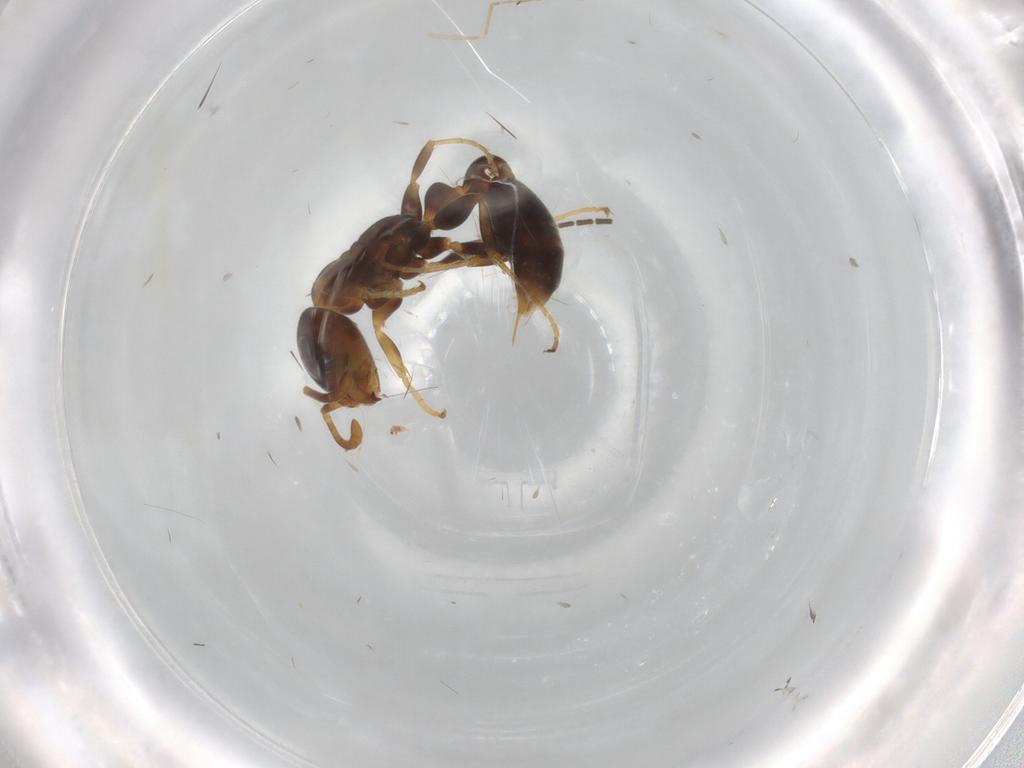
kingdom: Animalia
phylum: Arthropoda
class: Insecta
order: Hymenoptera
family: Formicidae
